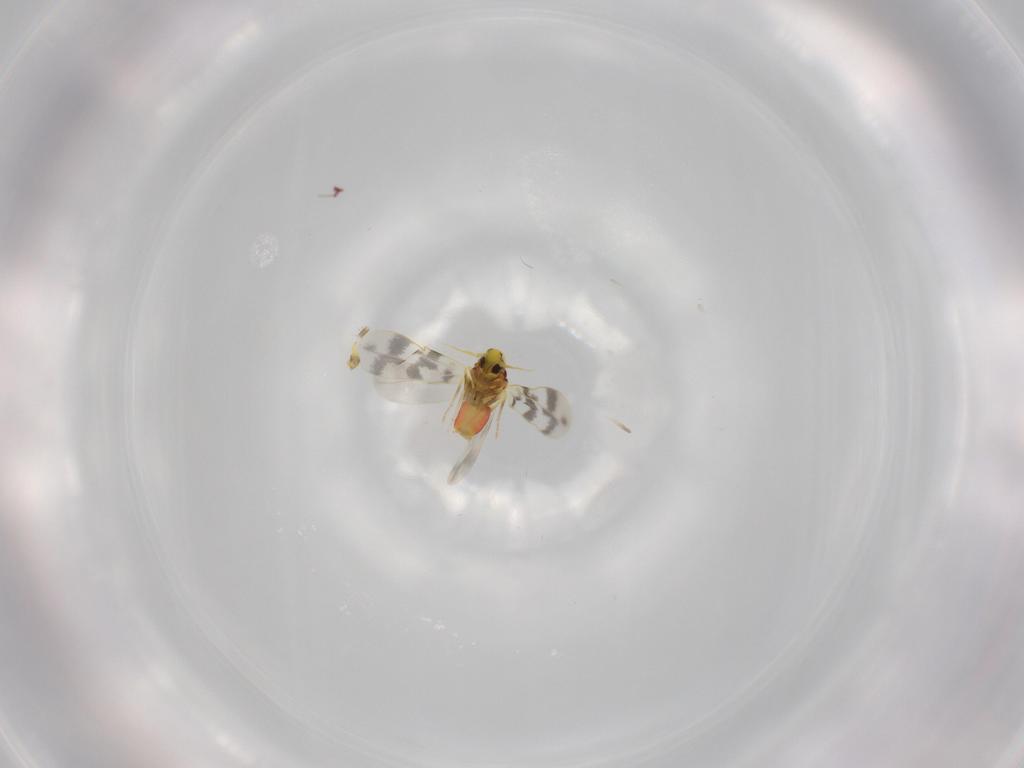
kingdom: Animalia
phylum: Arthropoda
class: Insecta
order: Hemiptera
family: Aleyrodidae
